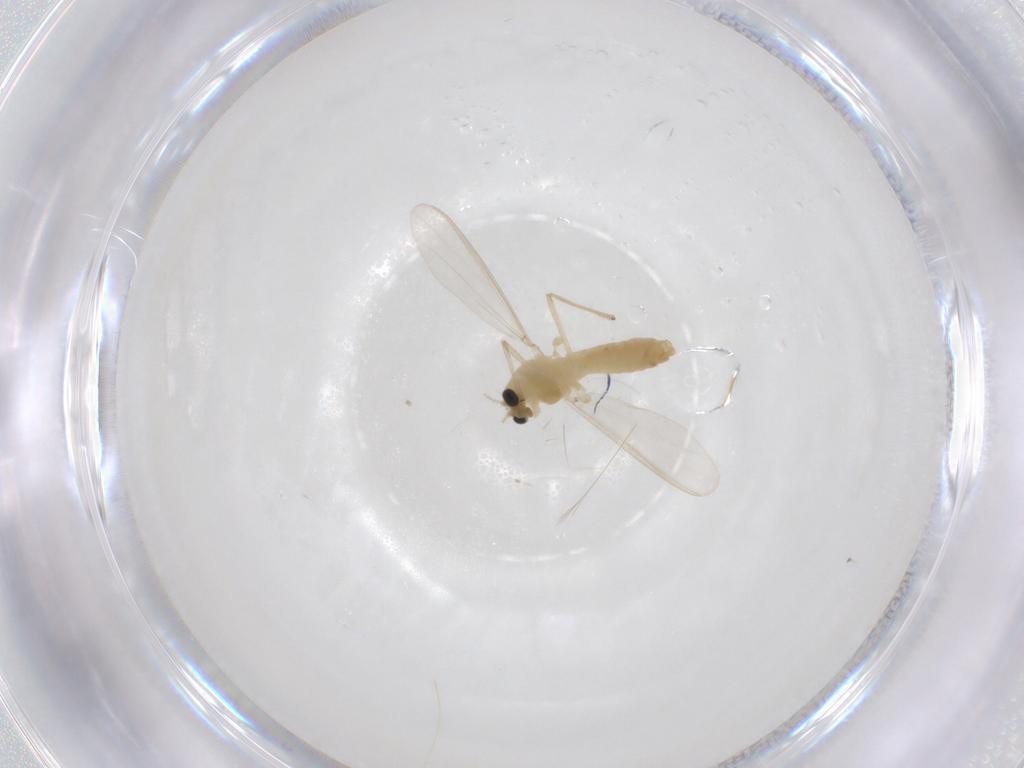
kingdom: Animalia
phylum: Arthropoda
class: Insecta
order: Diptera
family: Chironomidae
